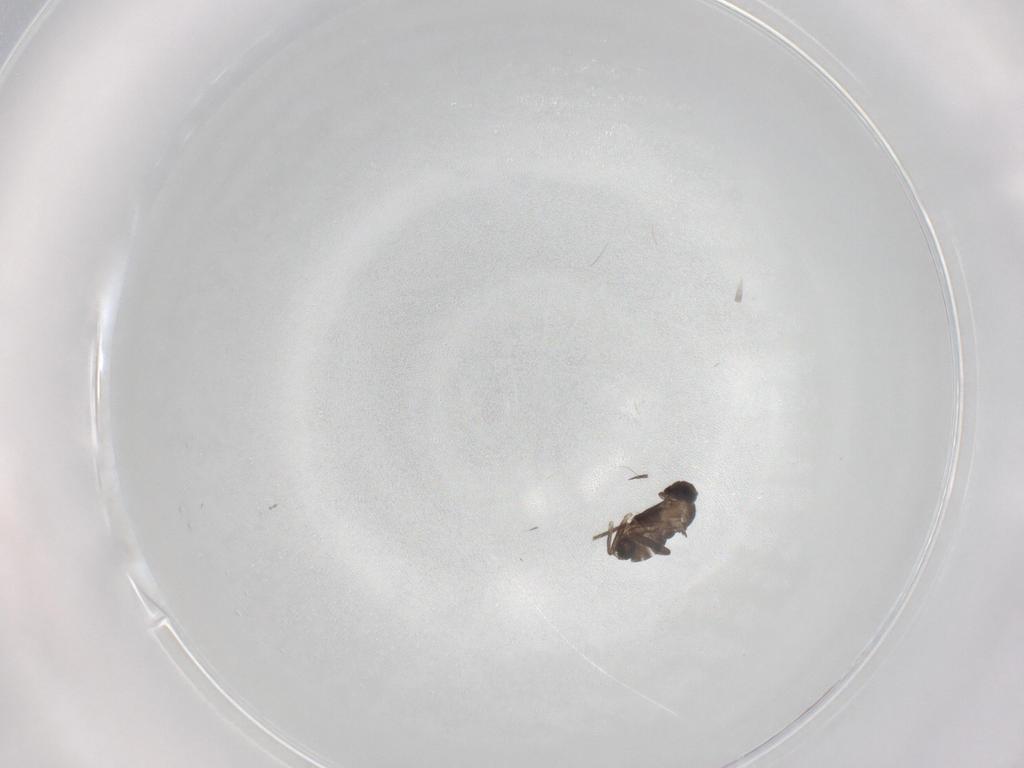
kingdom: Animalia
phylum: Arthropoda
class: Insecta
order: Diptera
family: Phoridae
